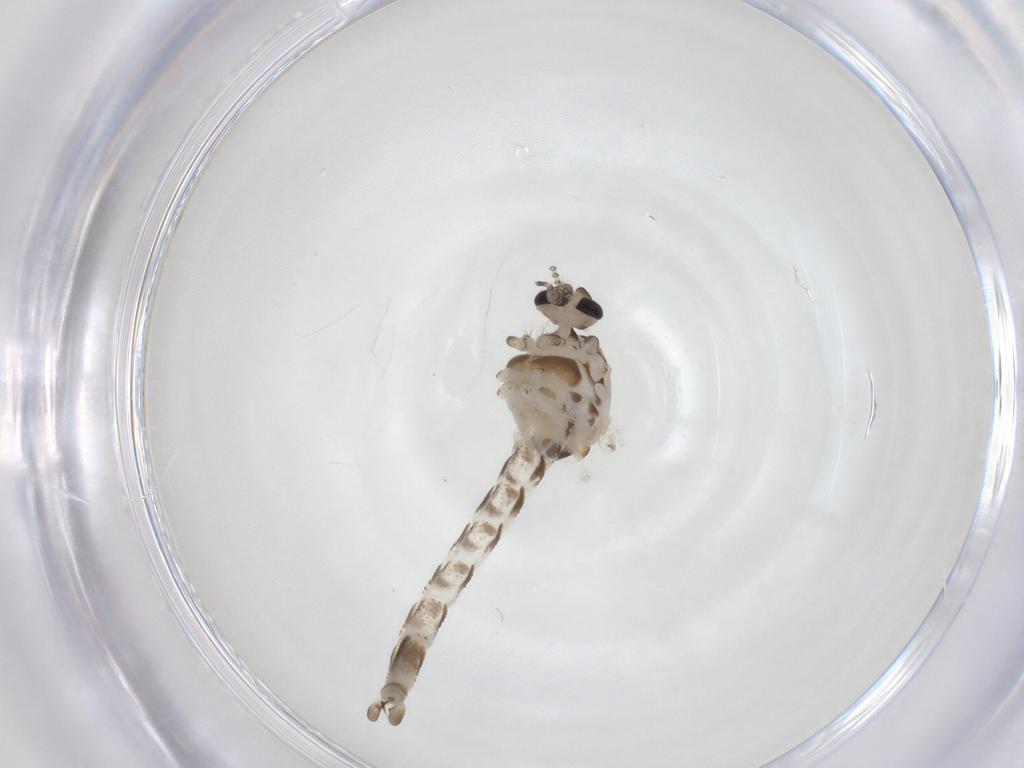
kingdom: Animalia
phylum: Arthropoda
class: Insecta
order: Diptera
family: Chaoboridae
